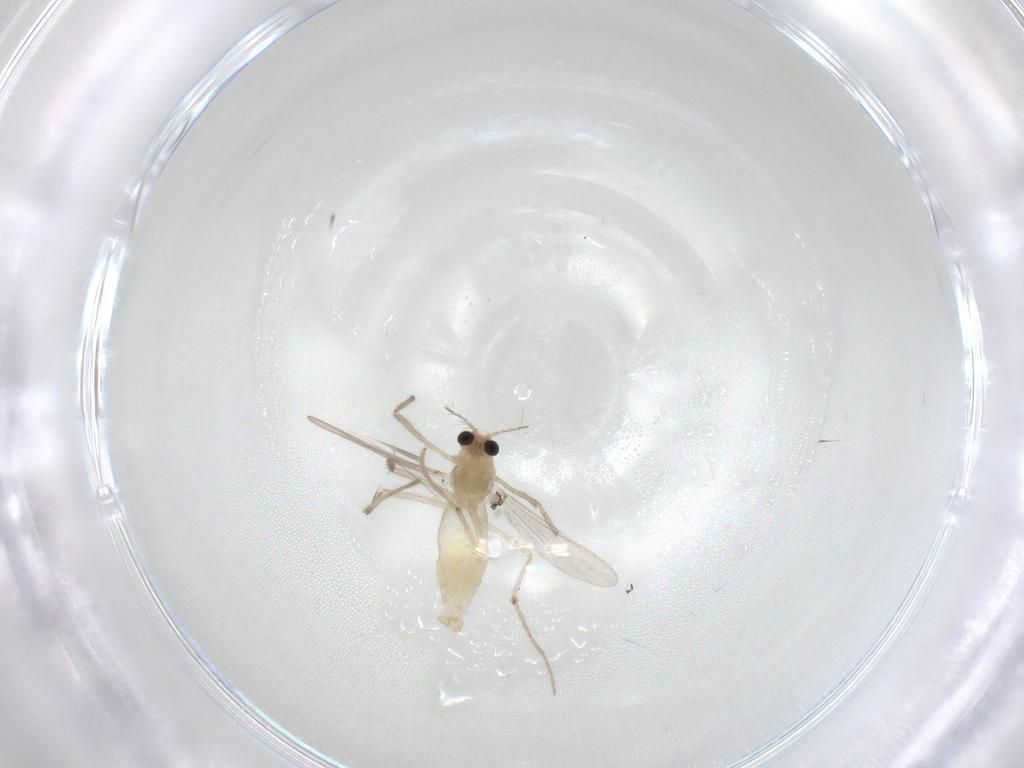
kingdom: Animalia
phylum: Arthropoda
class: Insecta
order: Diptera
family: Chironomidae
